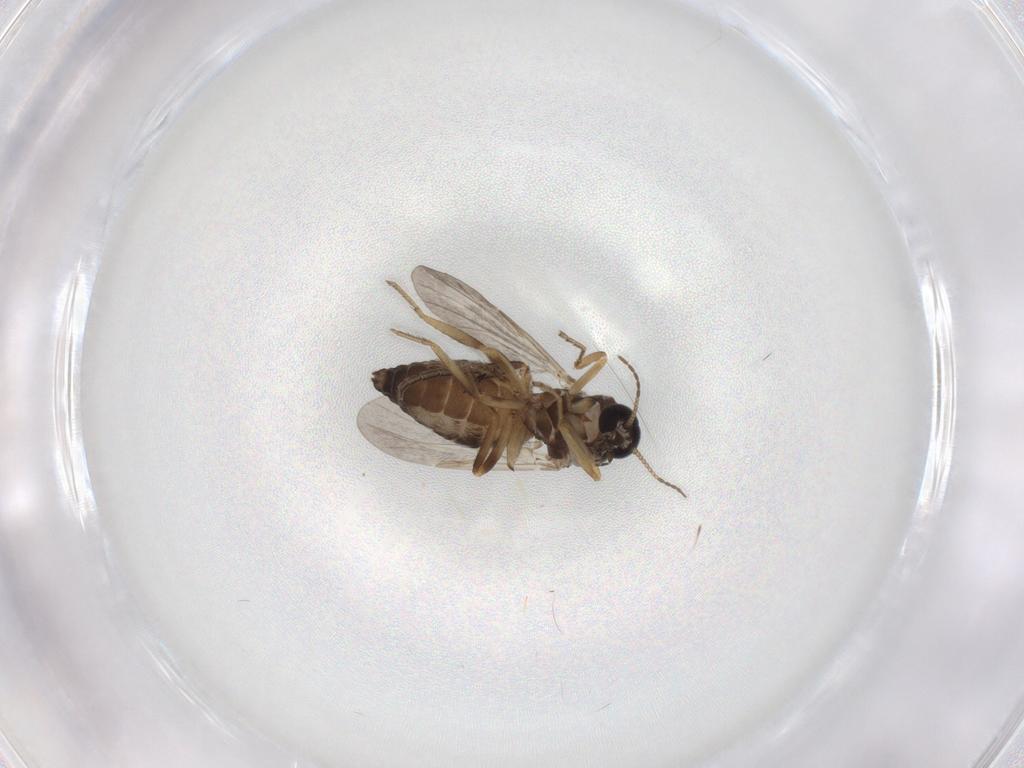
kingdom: Animalia
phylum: Arthropoda
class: Insecta
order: Diptera
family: Ceratopogonidae
